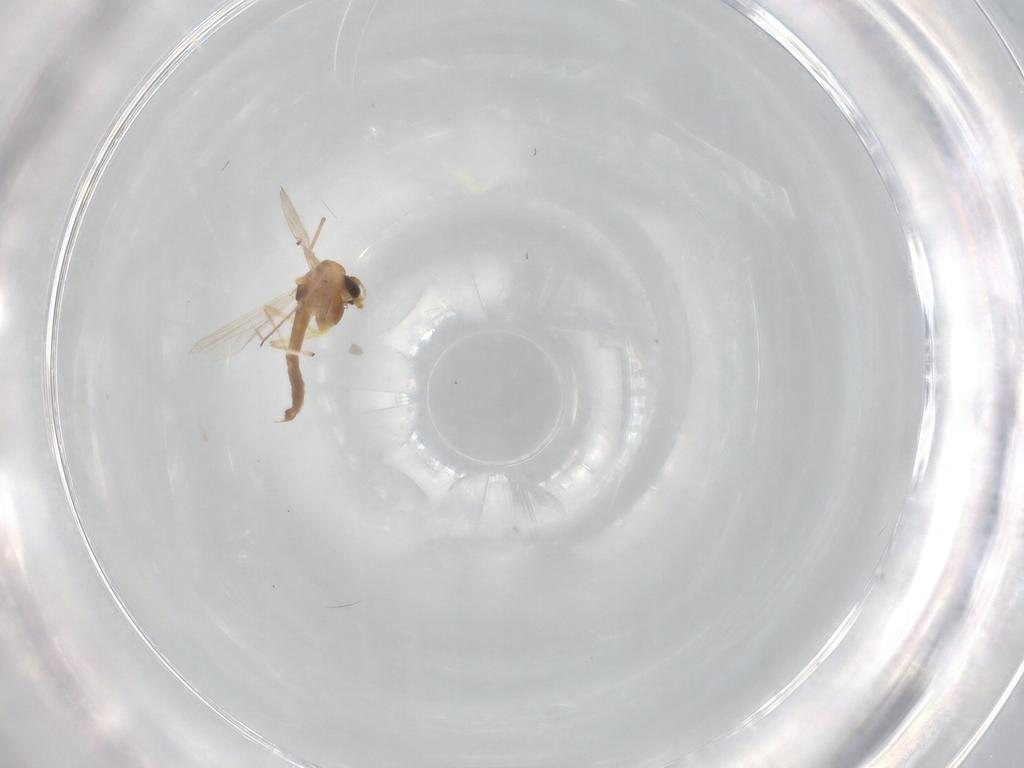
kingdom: Animalia
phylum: Arthropoda
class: Insecta
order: Diptera
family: Chironomidae
